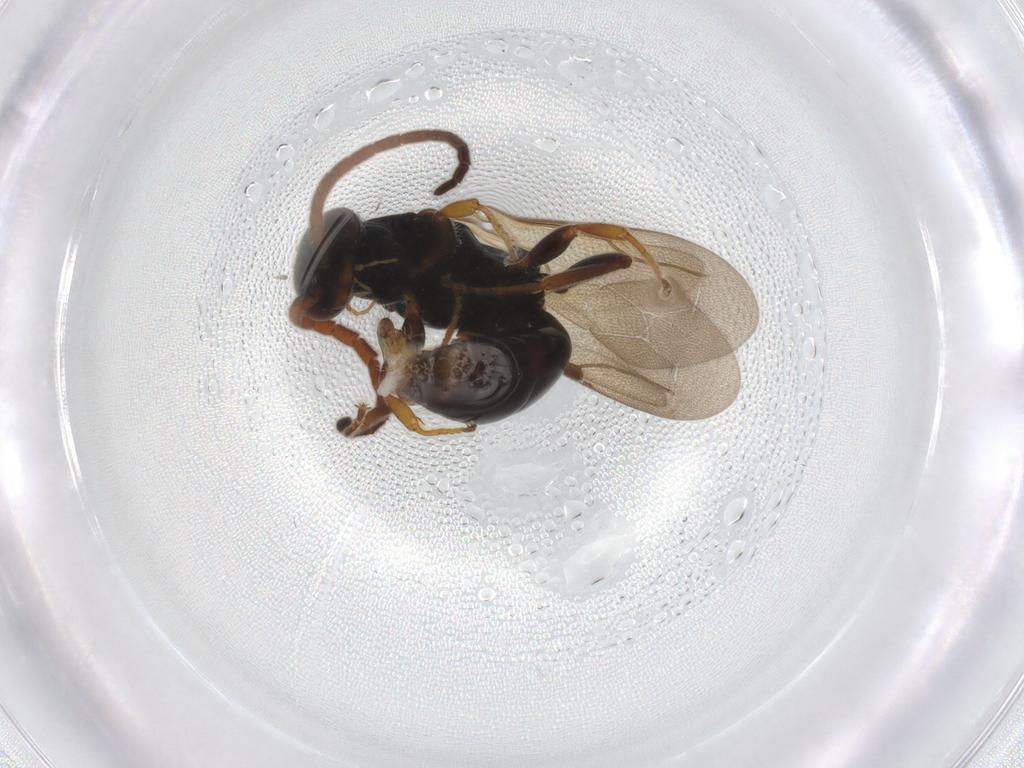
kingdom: Animalia
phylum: Arthropoda
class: Insecta
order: Hymenoptera
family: Bethylidae
